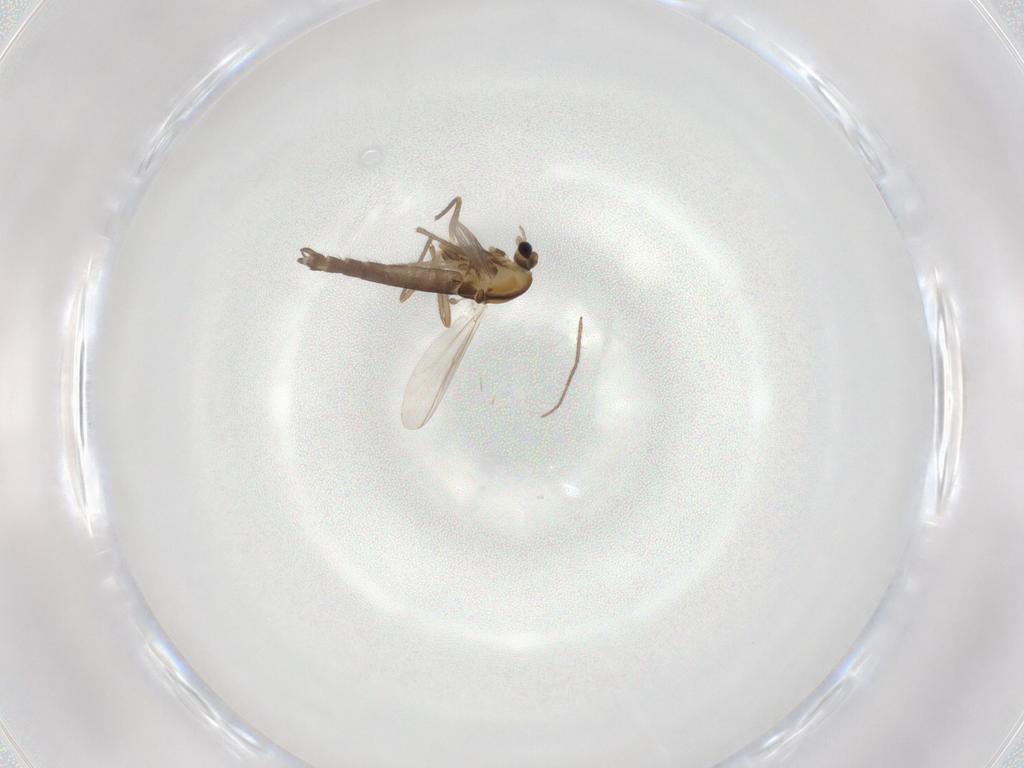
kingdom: Animalia
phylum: Arthropoda
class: Insecta
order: Diptera
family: Chironomidae
